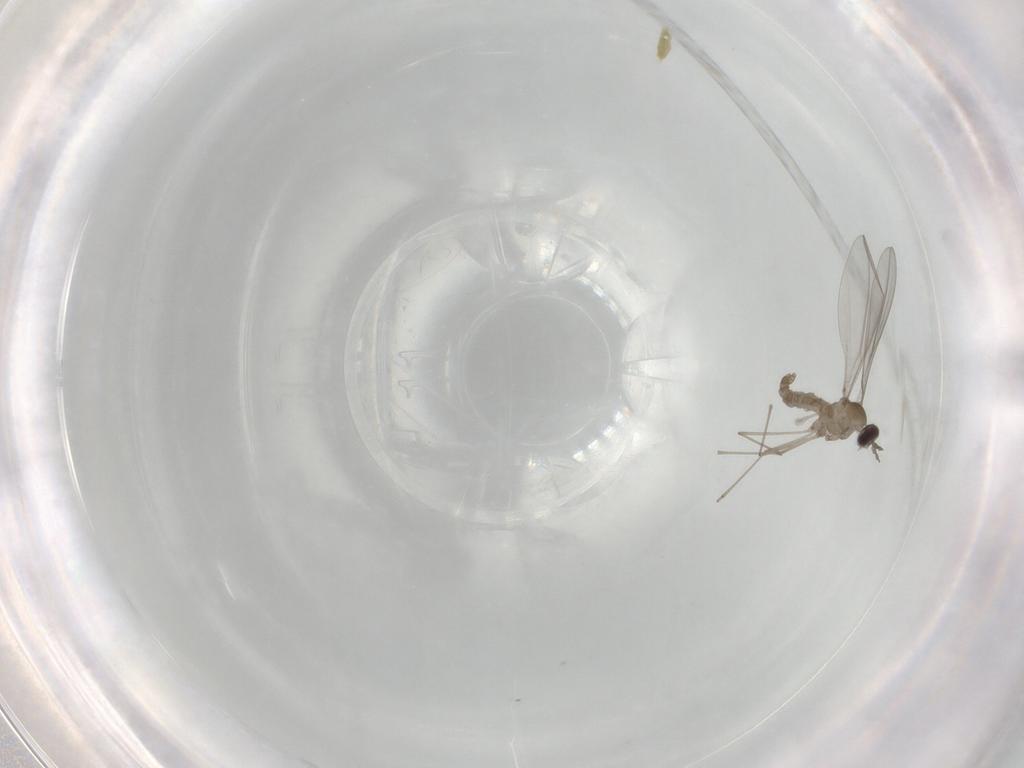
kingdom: Animalia
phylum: Arthropoda
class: Insecta
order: Diptera
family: Cecidomyiidae
